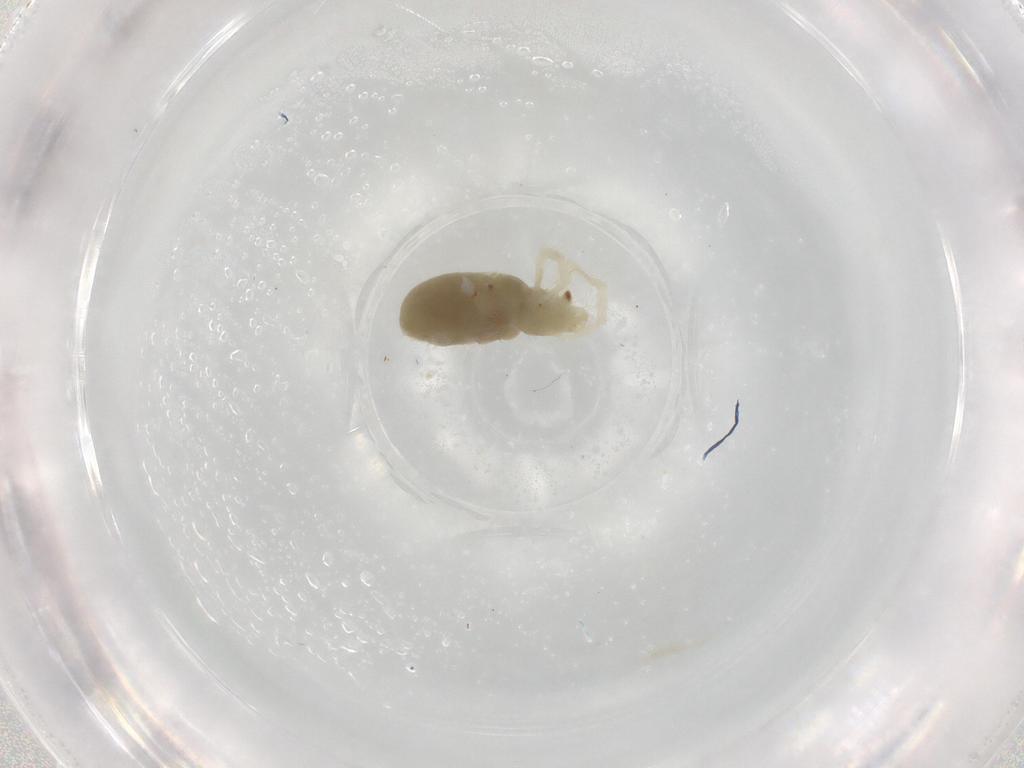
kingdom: Animalia
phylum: Arthropoda
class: Arachnida
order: Trombidiformes
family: Rhagidiidae
